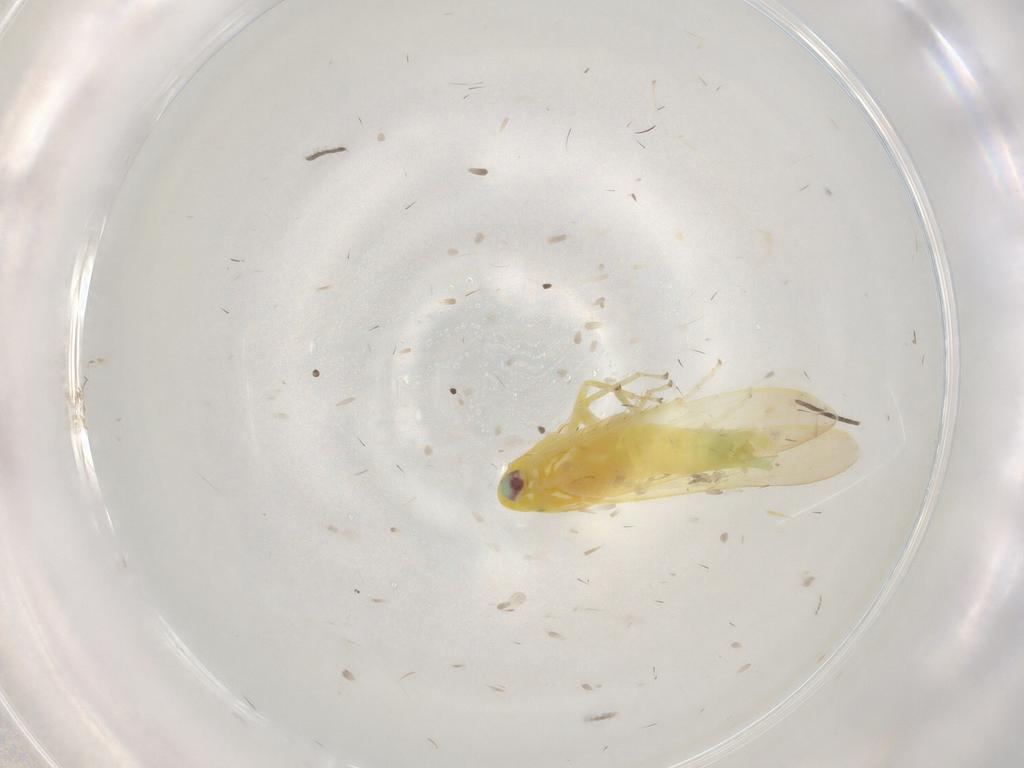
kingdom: Animalia
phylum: Arthropoda
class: Insecta
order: Hemiptera
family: Cicadellidae
